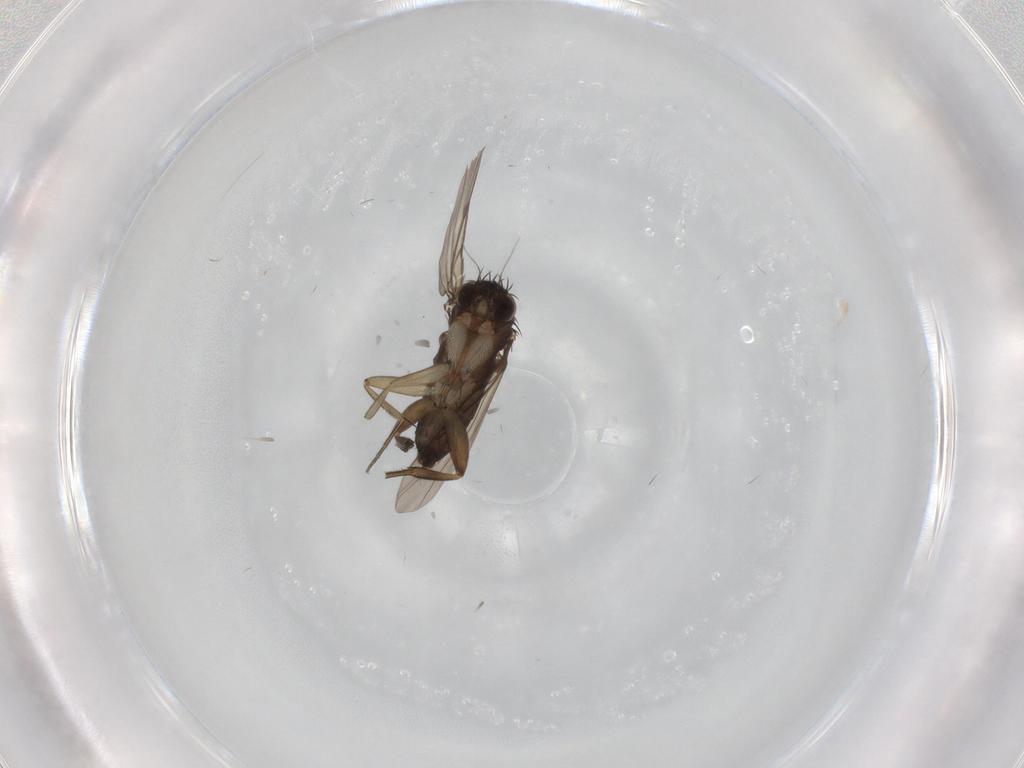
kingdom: Animalia
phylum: Arthropoda
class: Insecta
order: Diptera
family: Phoridae
